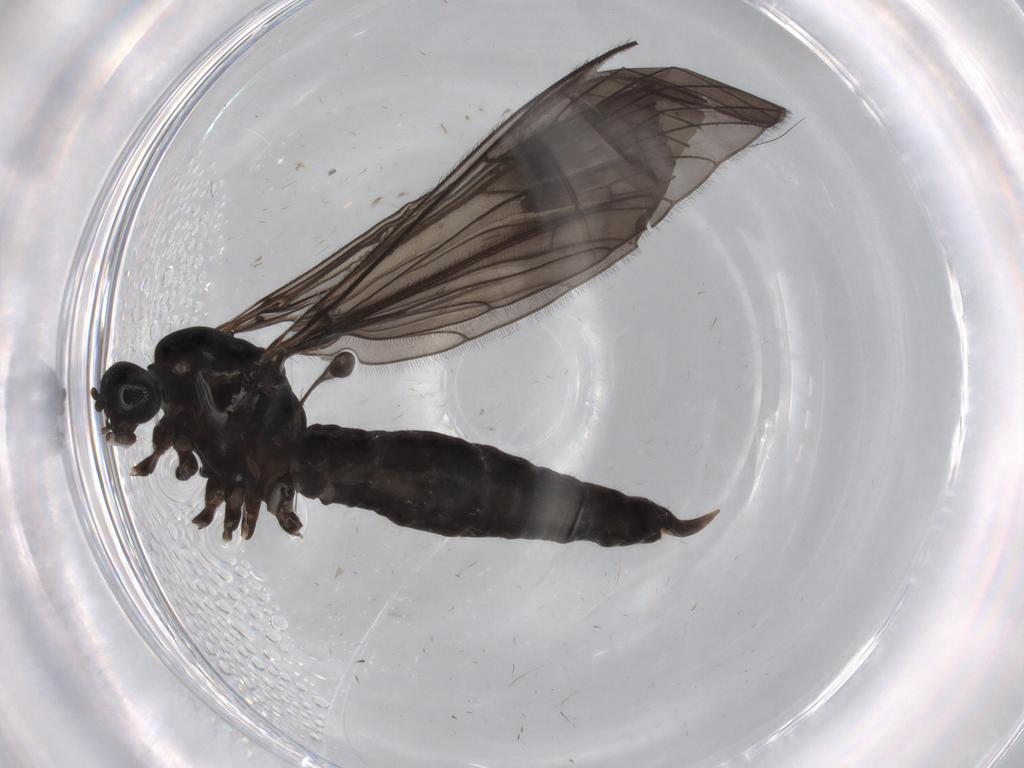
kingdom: Animalia
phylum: Arthropoda
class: Insecta
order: Diptera
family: Limoniidae
